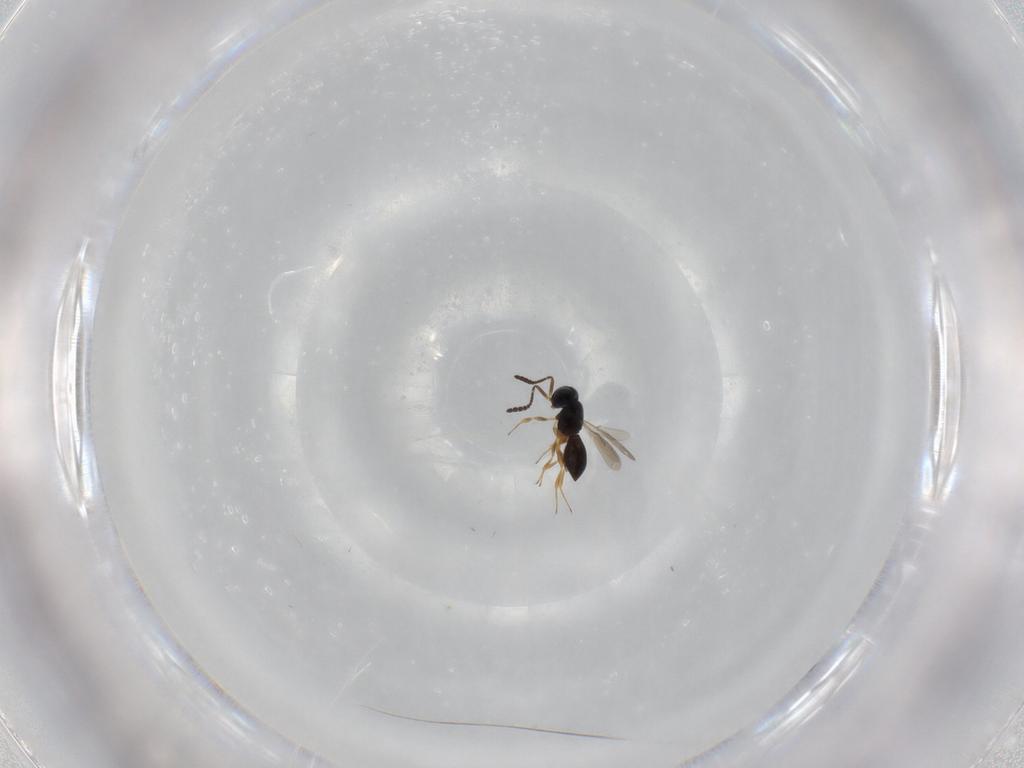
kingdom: Animalia
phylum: Arthropoda
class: Insecta
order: Hymenoptera
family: Scelionidae
